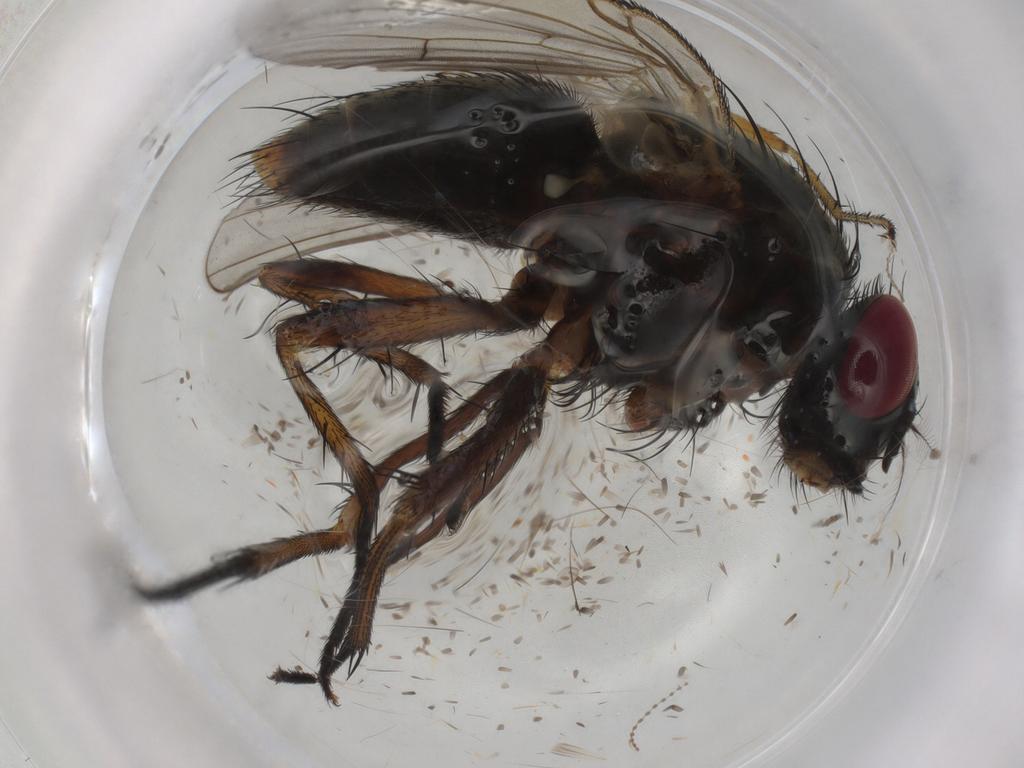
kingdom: Animalia
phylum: Arthropoda
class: Insecta
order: Diptera
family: Muscidae
